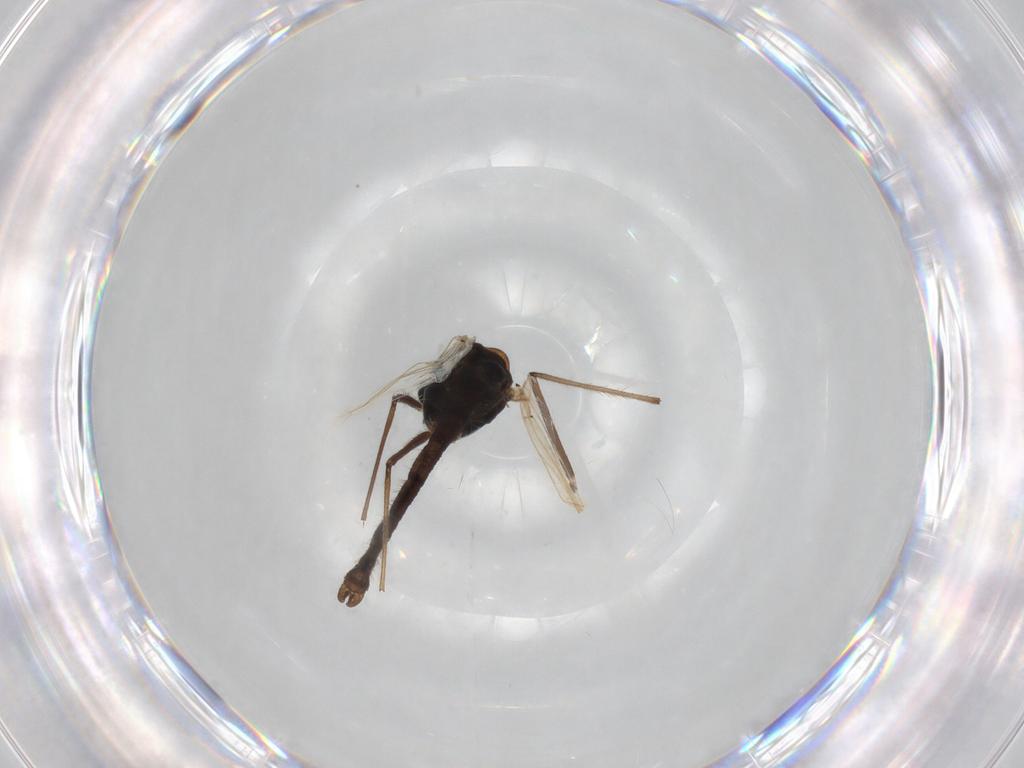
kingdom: Animalia
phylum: Arthropoda
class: Insecta
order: Diptera
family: Chironomidae
